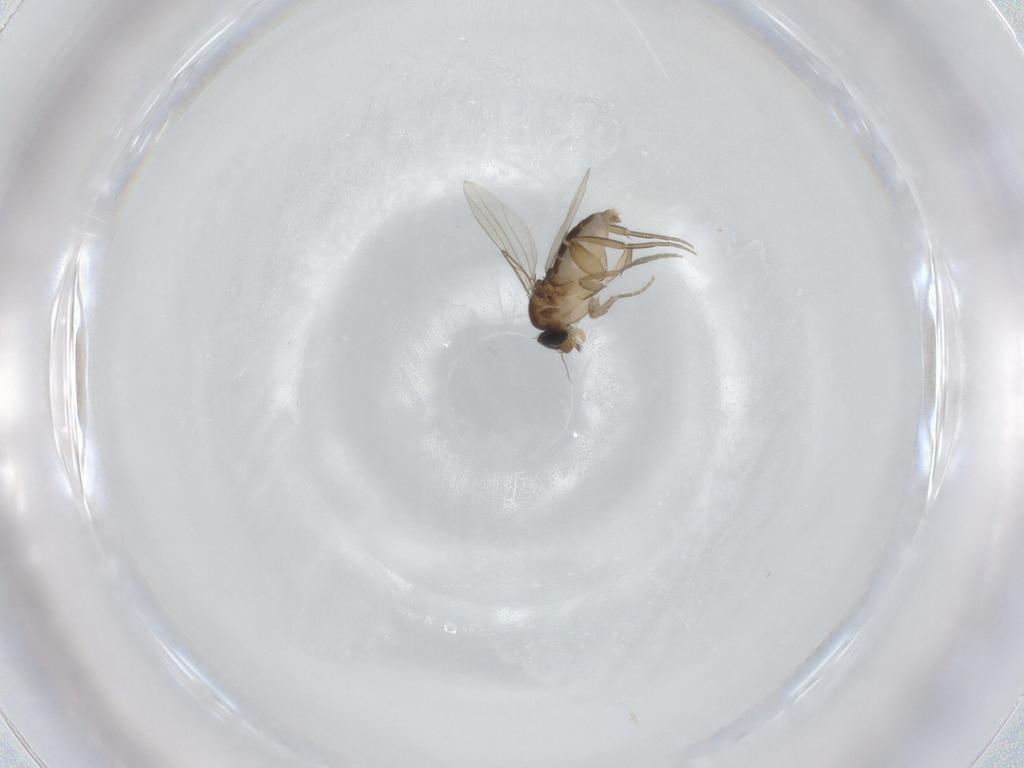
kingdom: Animalia
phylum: Arthropoda
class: Insecta
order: Diptera
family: Phoridae
